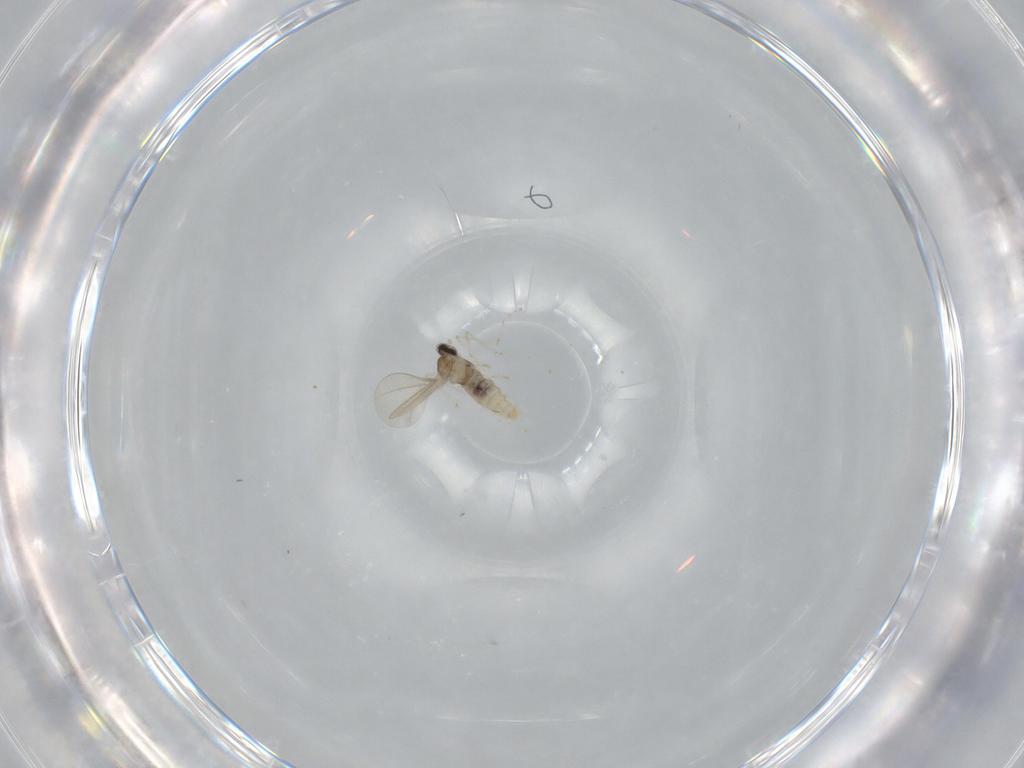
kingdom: Animalia
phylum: Arthropoda
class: Insecta
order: Diptera
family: Cecidomyiidae
